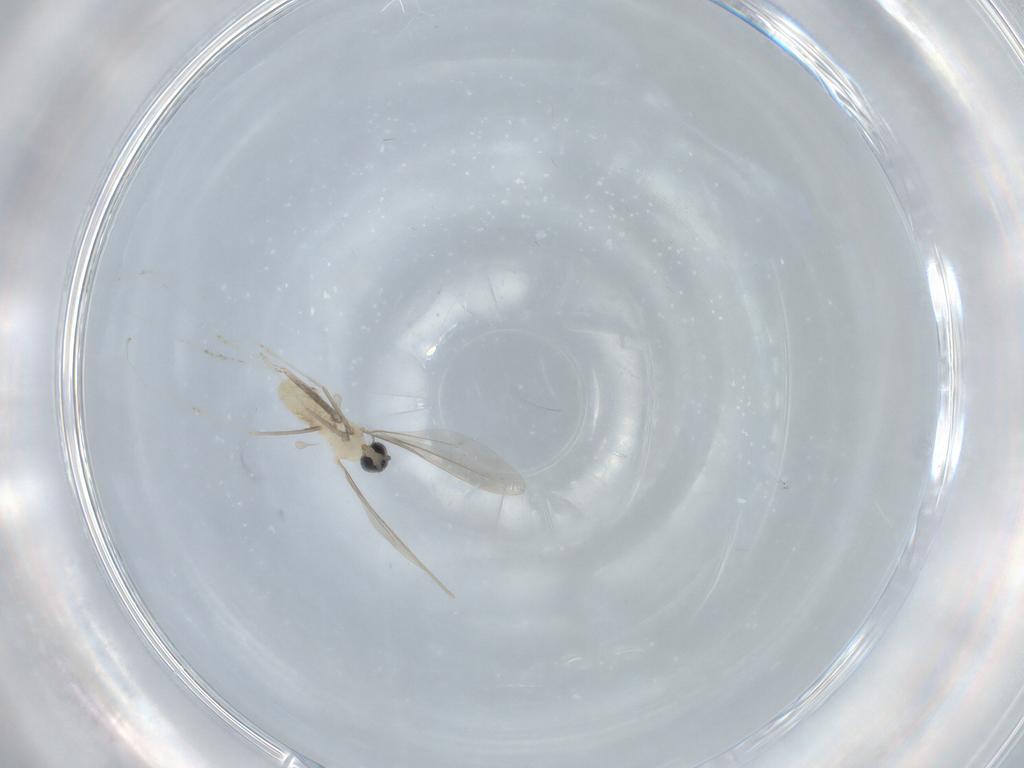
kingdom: Animalia
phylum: Arthropoda
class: Insecta
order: Diptera
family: Cecidomyiidae
